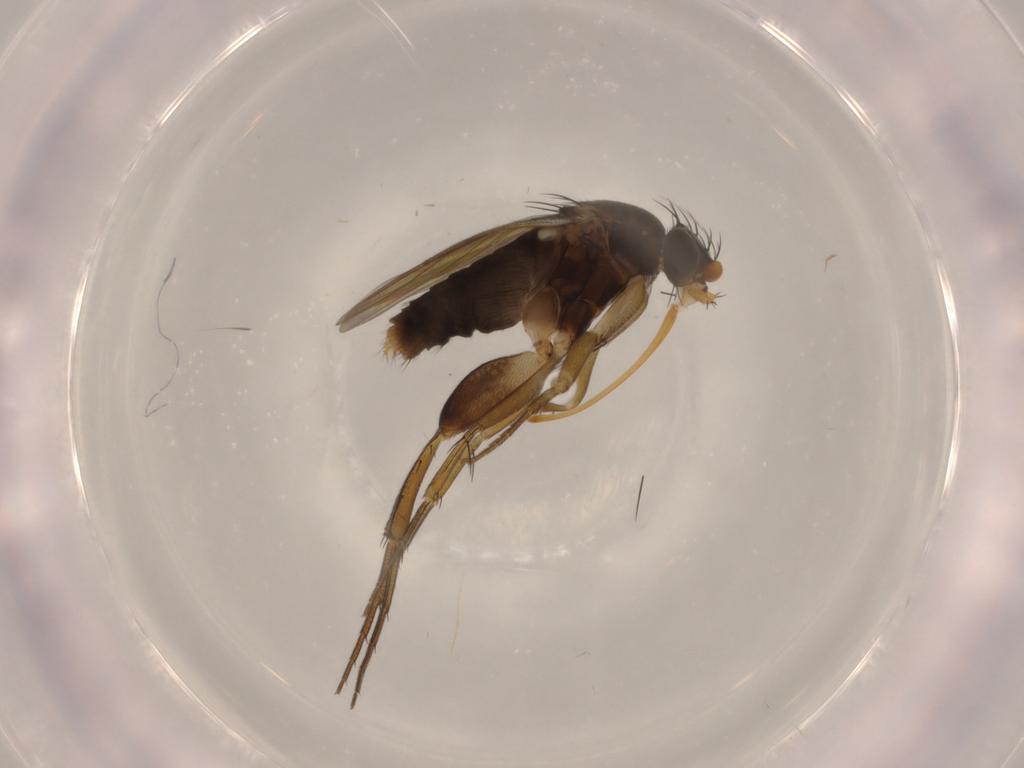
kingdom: Animalia
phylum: Arthropoda
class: Insecta
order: Diptera
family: Phoridae
